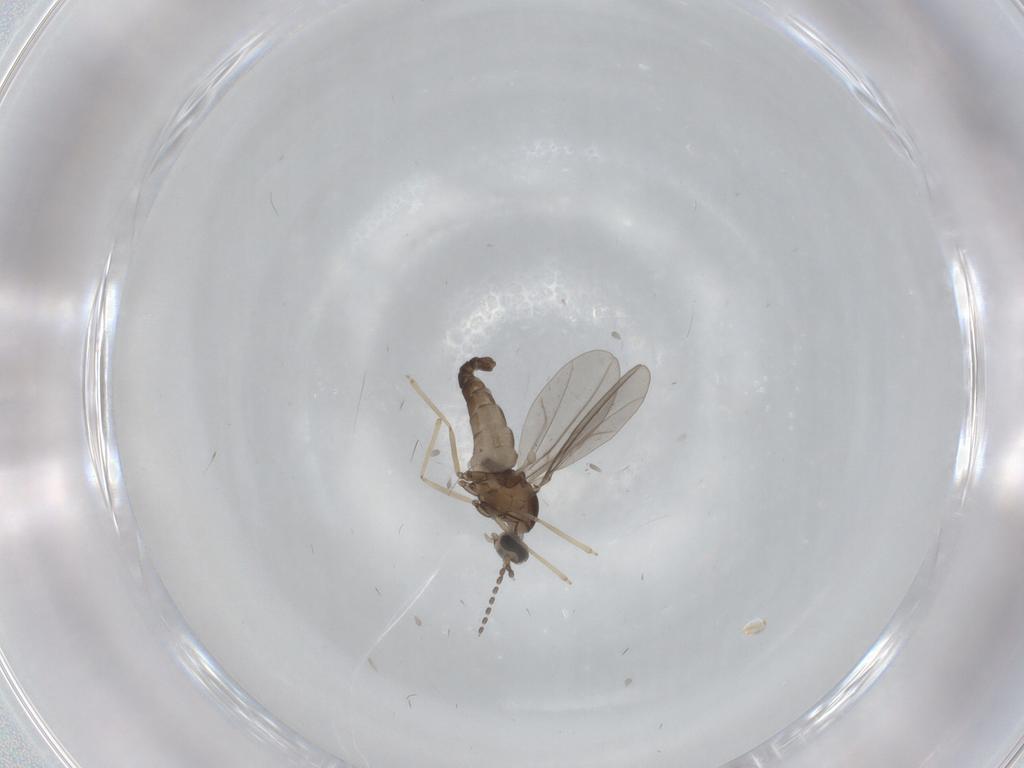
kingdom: Animalia
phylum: Arthropoda
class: Insecta
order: Diptera
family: Cecidomyiidae
